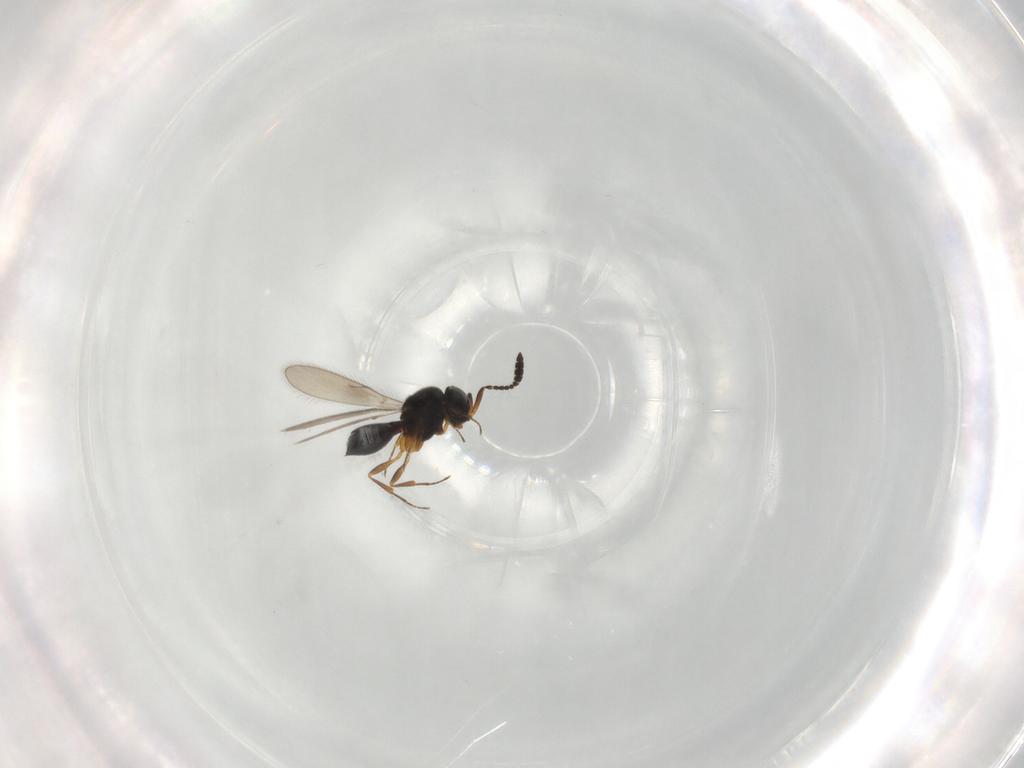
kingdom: Animalia
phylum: Arthropoda
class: Insecta
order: Hymenoptera
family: Scelionidae
